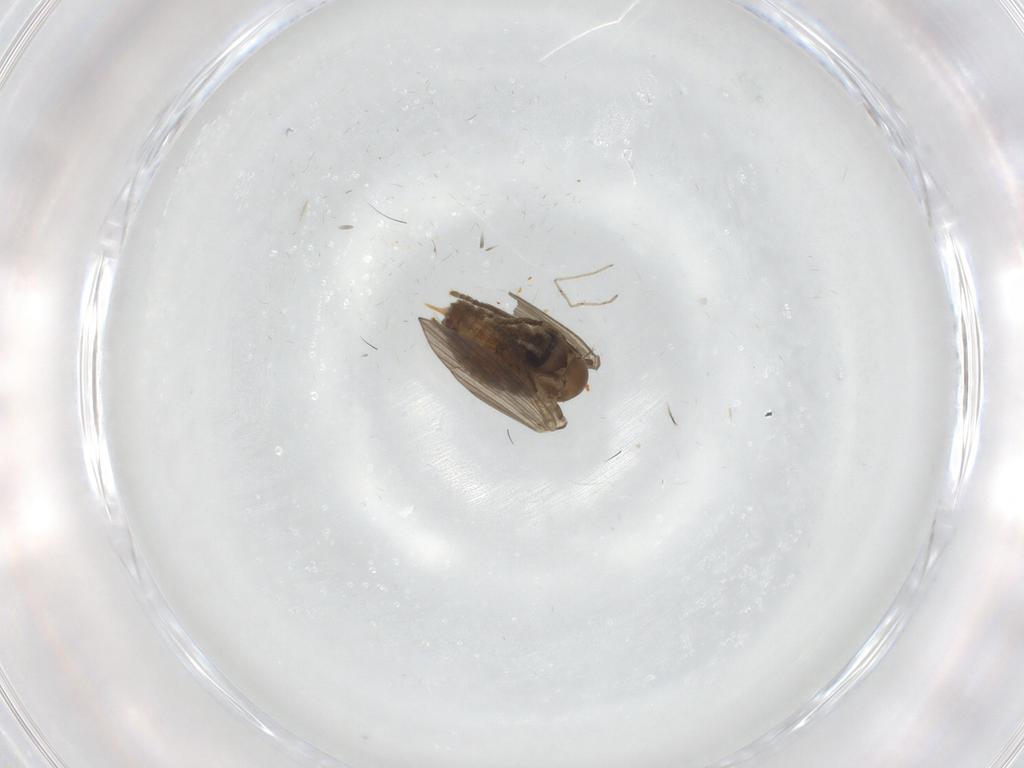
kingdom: Animalia
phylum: Arthropoda
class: Insecta
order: Diptera
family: Psychodidae
